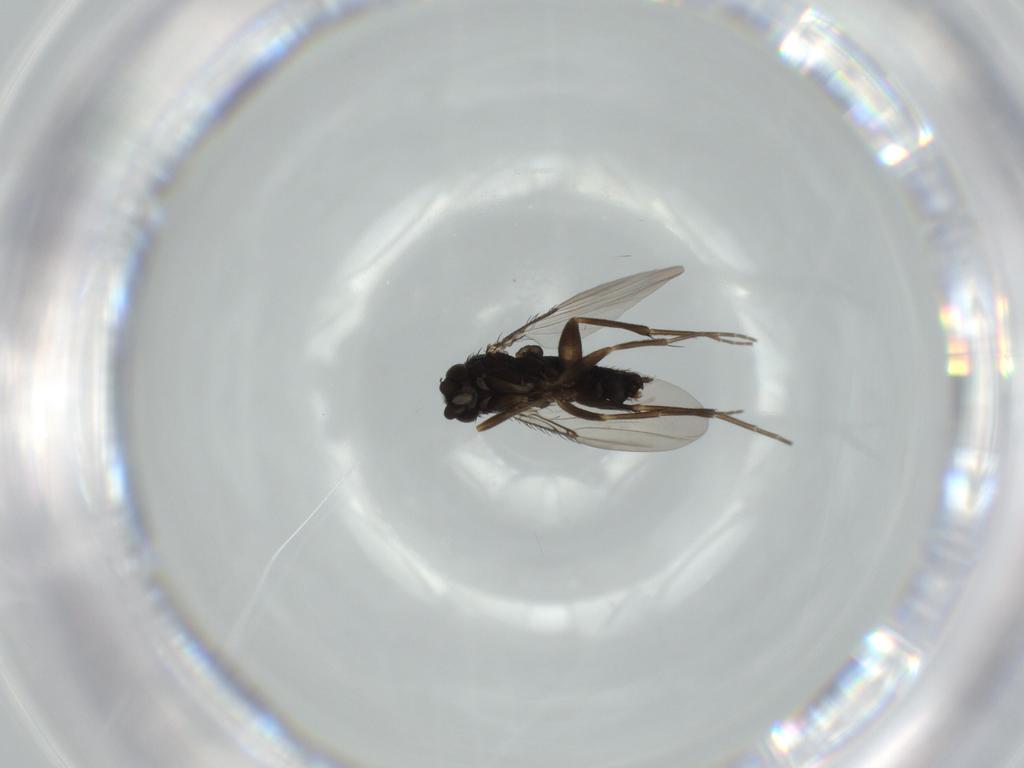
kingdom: Animalia
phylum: Arthropoda
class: Insecta
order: Diptera
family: Phoridae
